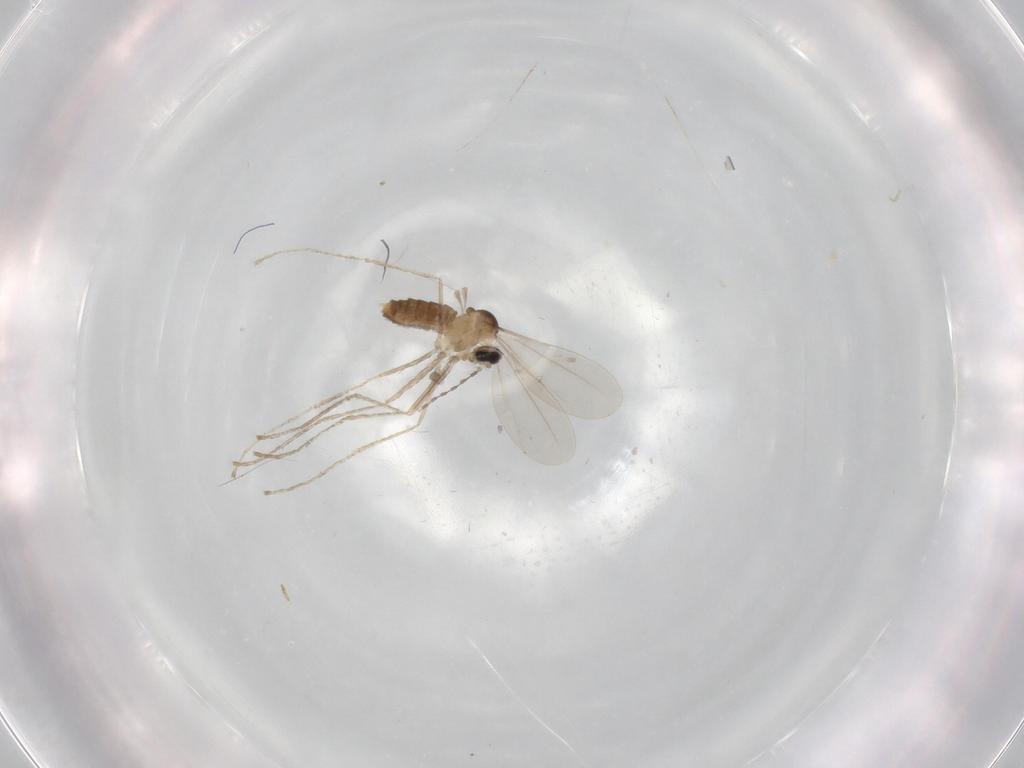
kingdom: Animalia
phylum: Arthropoda
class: Insecta
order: Diptera
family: Cecidomyiidae
